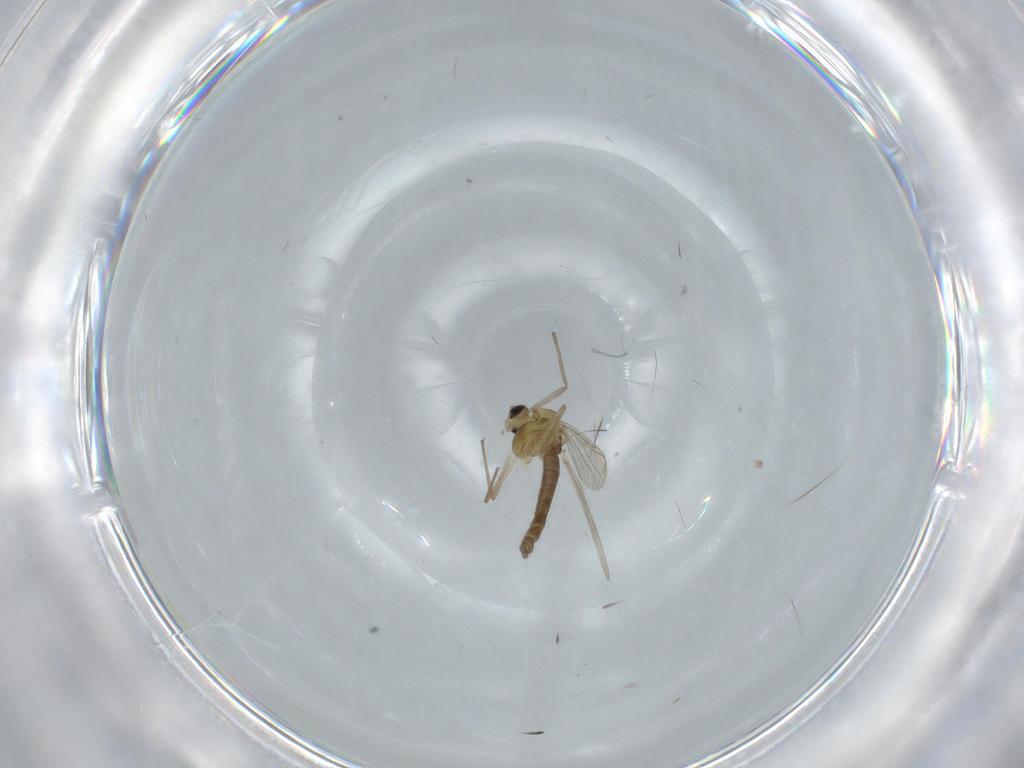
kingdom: Animalia
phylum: Arthropoda
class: Insecta
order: Diptera
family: Chironomidae
